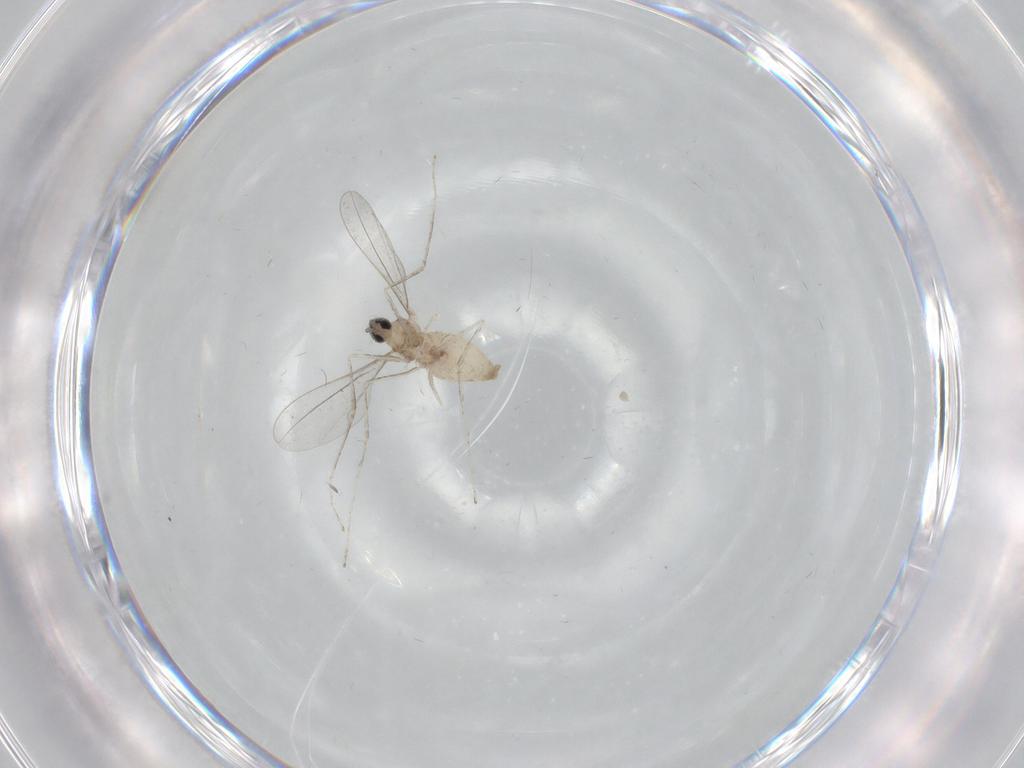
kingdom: Animalia
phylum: Arthropoda
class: Insecta
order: Diptera
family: Cecidomyiidae
